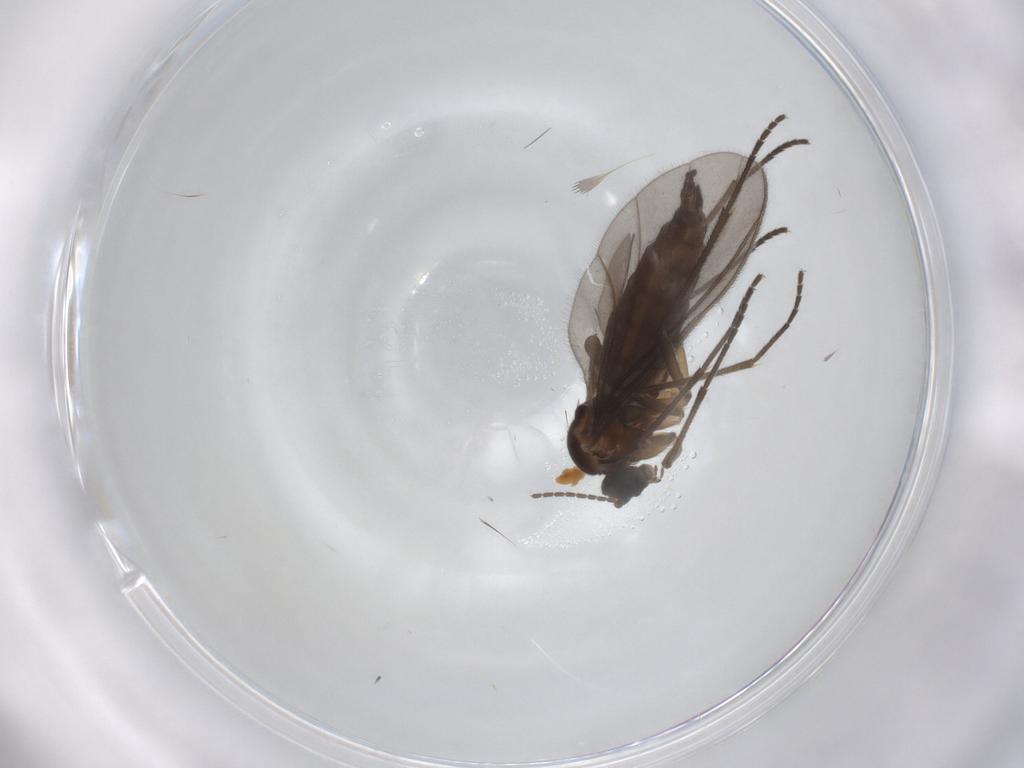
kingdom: Animalia
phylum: Arthropoda
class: Insecta
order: Diptera
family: Sciaridae
